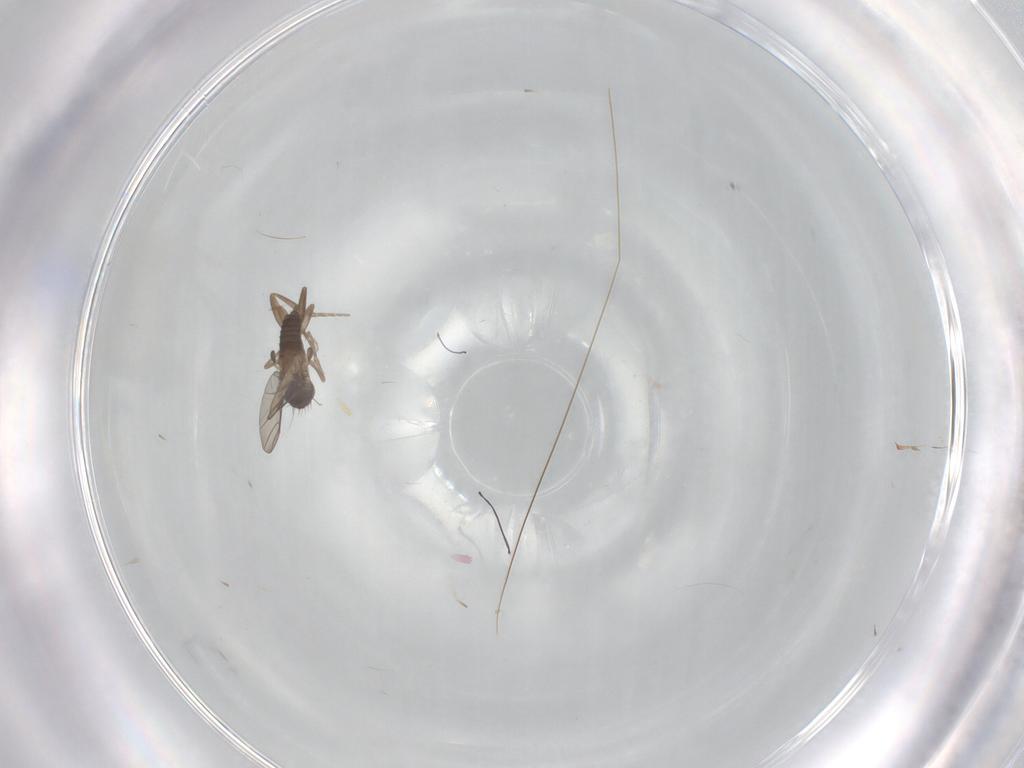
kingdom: Animalia
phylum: Arthropoda
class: Insecta
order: Diptera
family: Phoridae
